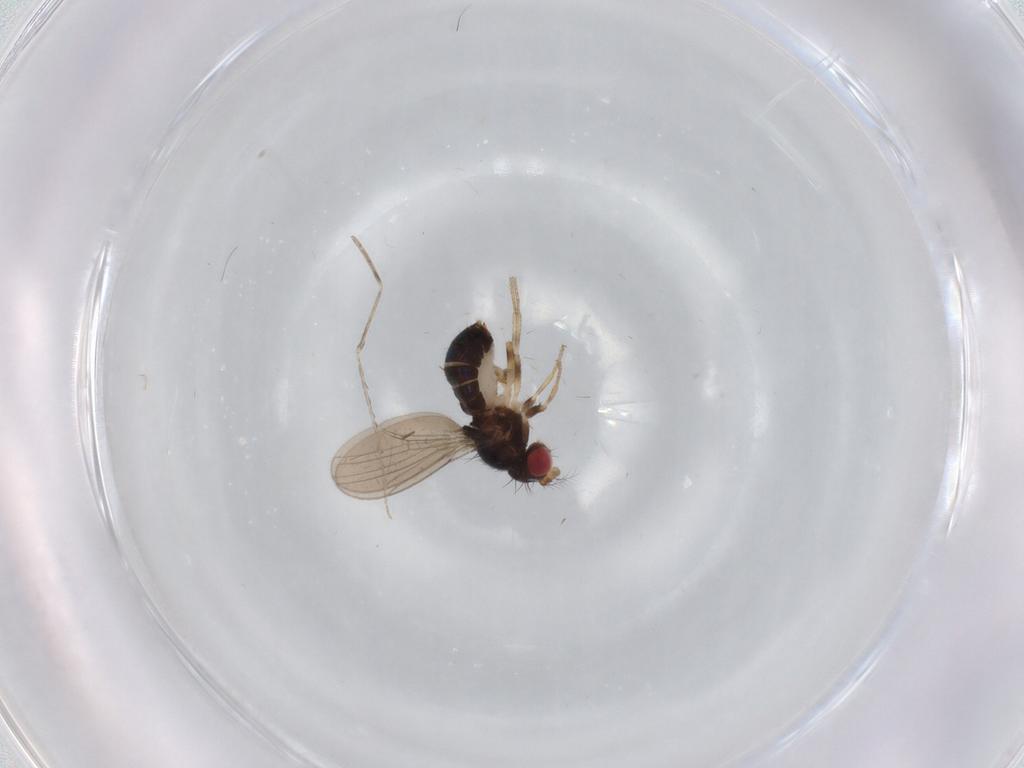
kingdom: Animalia
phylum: Arthropoda
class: Insecta
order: Diptera
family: Drosophilidae
